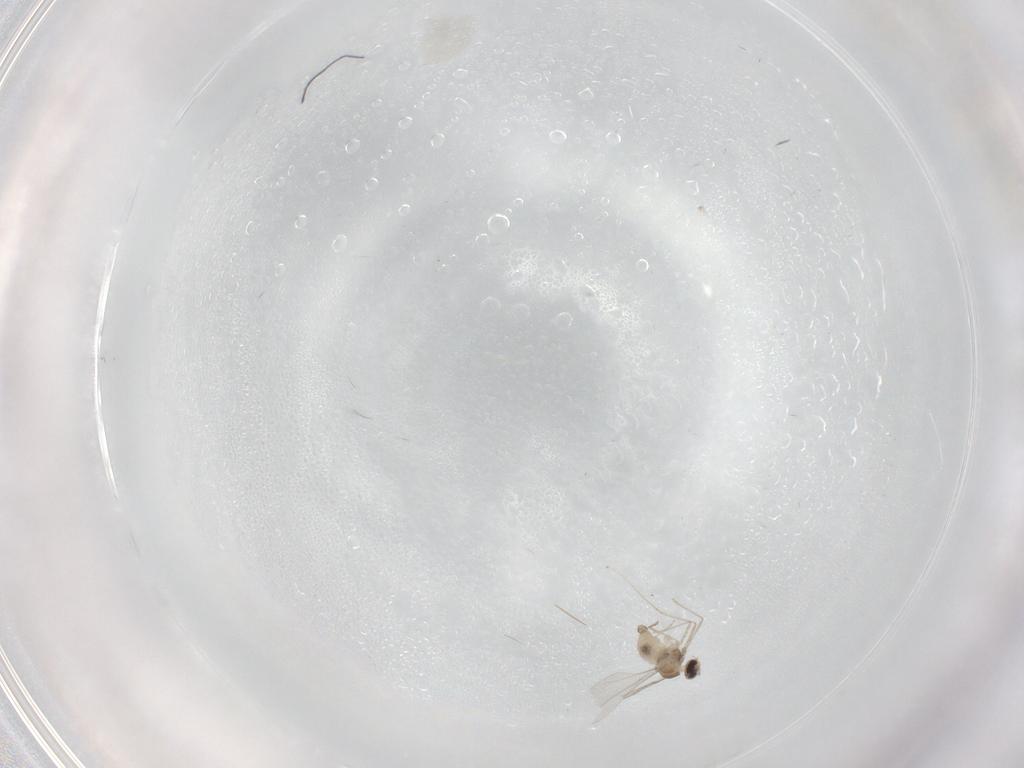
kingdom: Animalia
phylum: Arthropoda
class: Insecta
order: Diptera
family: Cecidomyiidae
